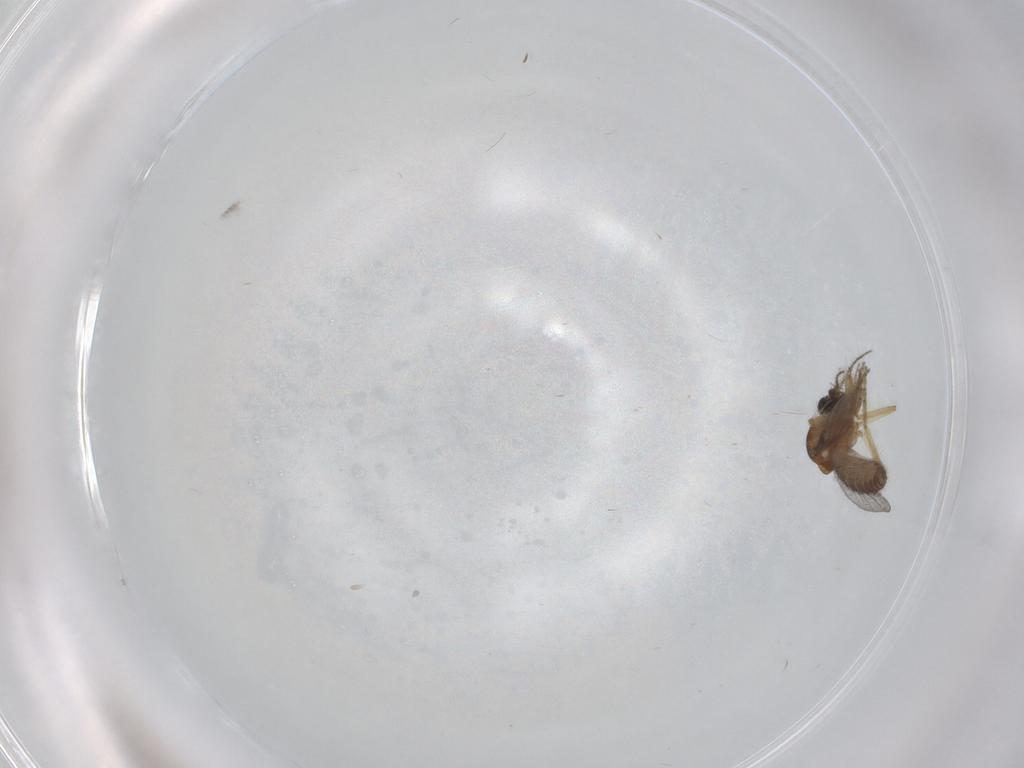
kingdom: Animalia
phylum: Arthropoda
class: Insecta
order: Diptera
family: Ceratopogonidae
